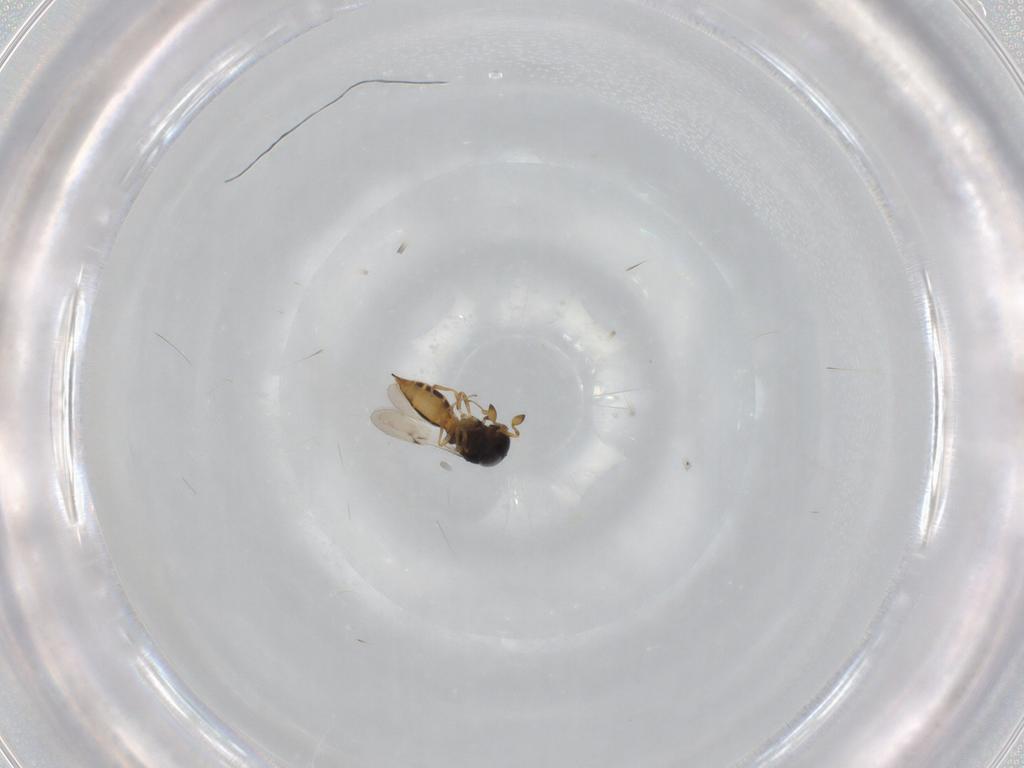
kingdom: Animalia
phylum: Arthropoda
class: Insecta
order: Hymenoptera
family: Scelionidae
